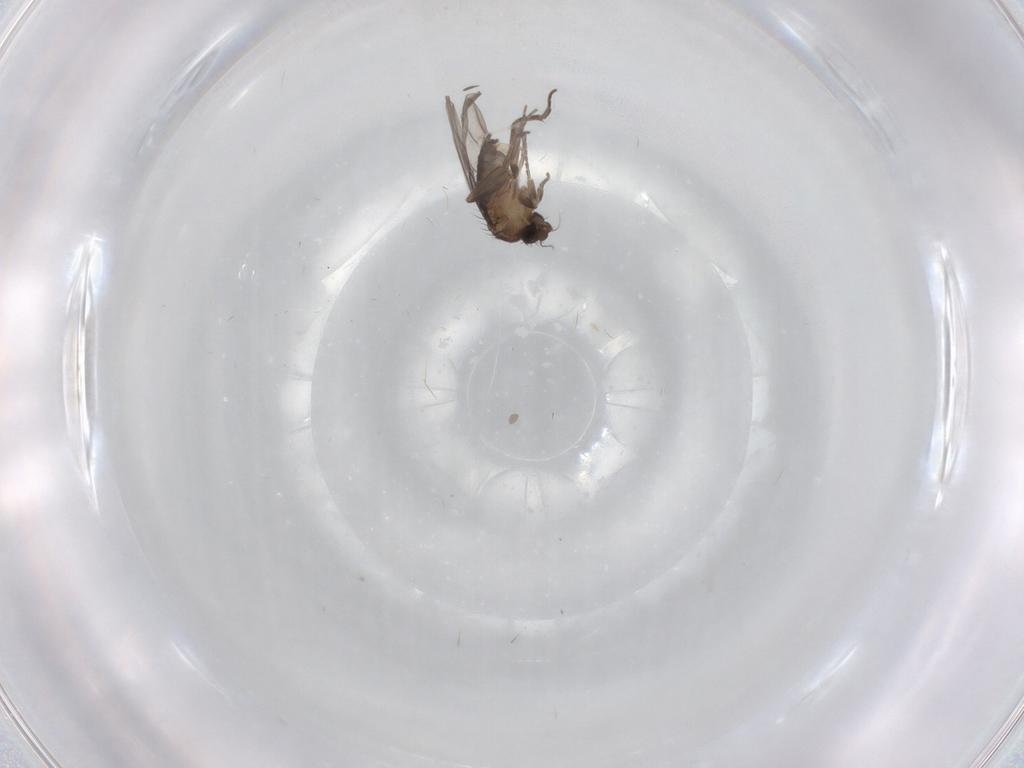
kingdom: Animalia
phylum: Arthropoda
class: Insecta
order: Diptera
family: Cecidomyiidae
